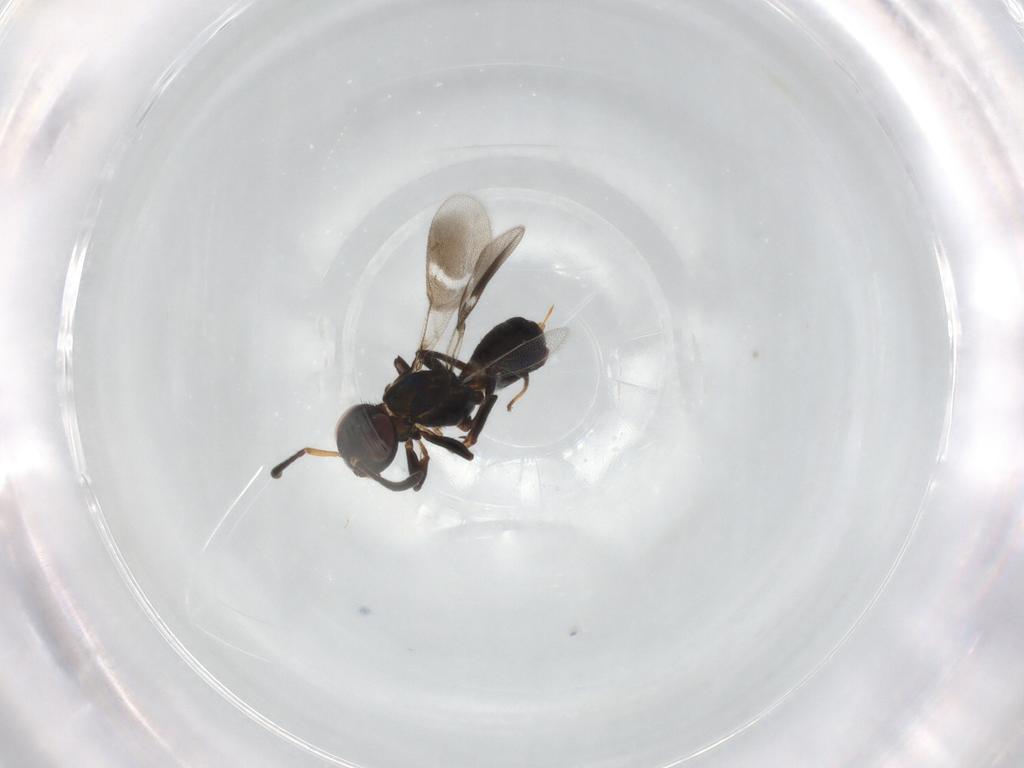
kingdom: Animalia
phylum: Arthropoda
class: Insecta
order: Hymenoptera
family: Eupelmidae
